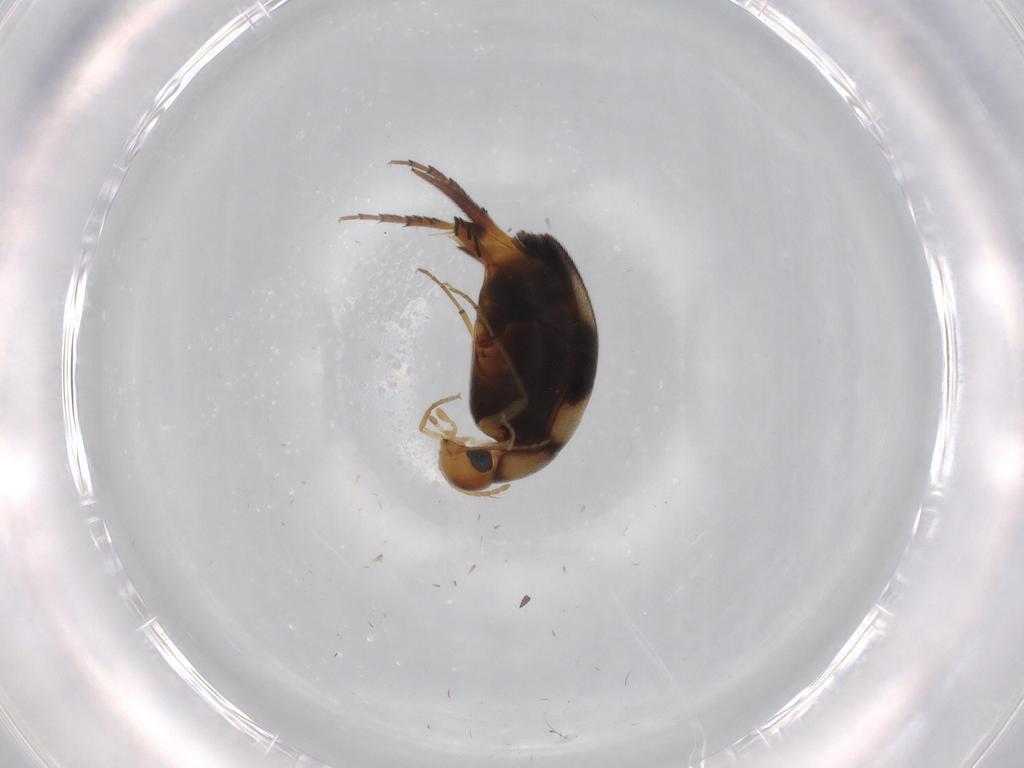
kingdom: Animalia
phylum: Arthropoda
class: Insecta
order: Coleoptera
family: Mordellidae
